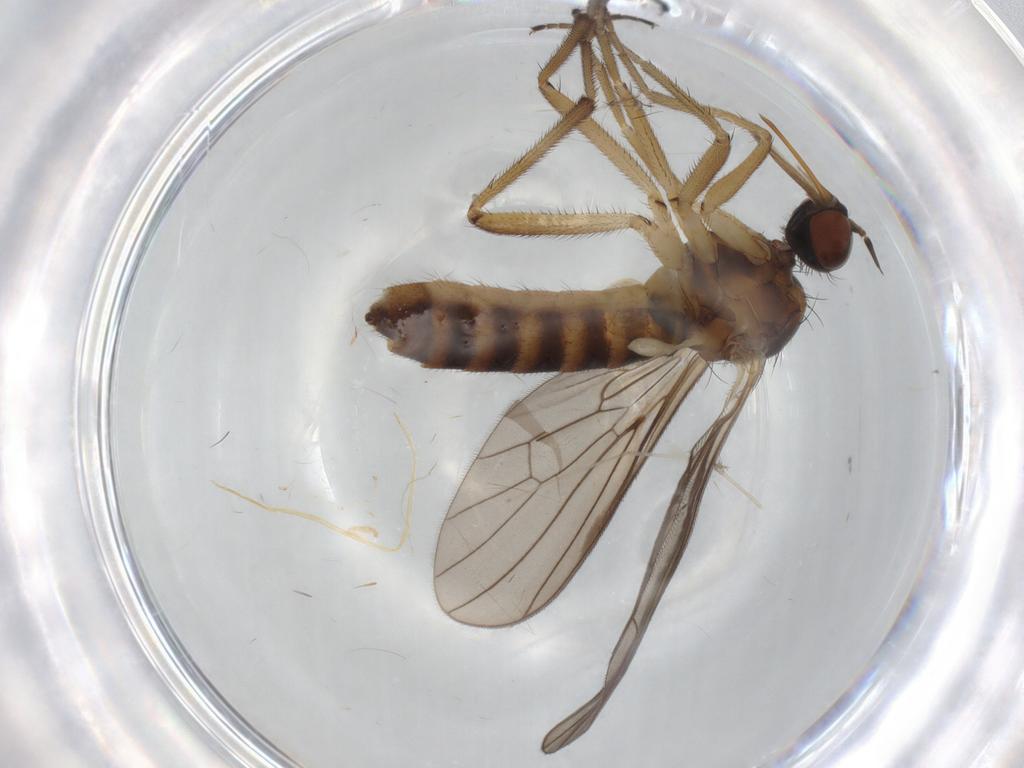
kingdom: Animalia
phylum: Arthropoda
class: Insecta
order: Diptera
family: Empididae
